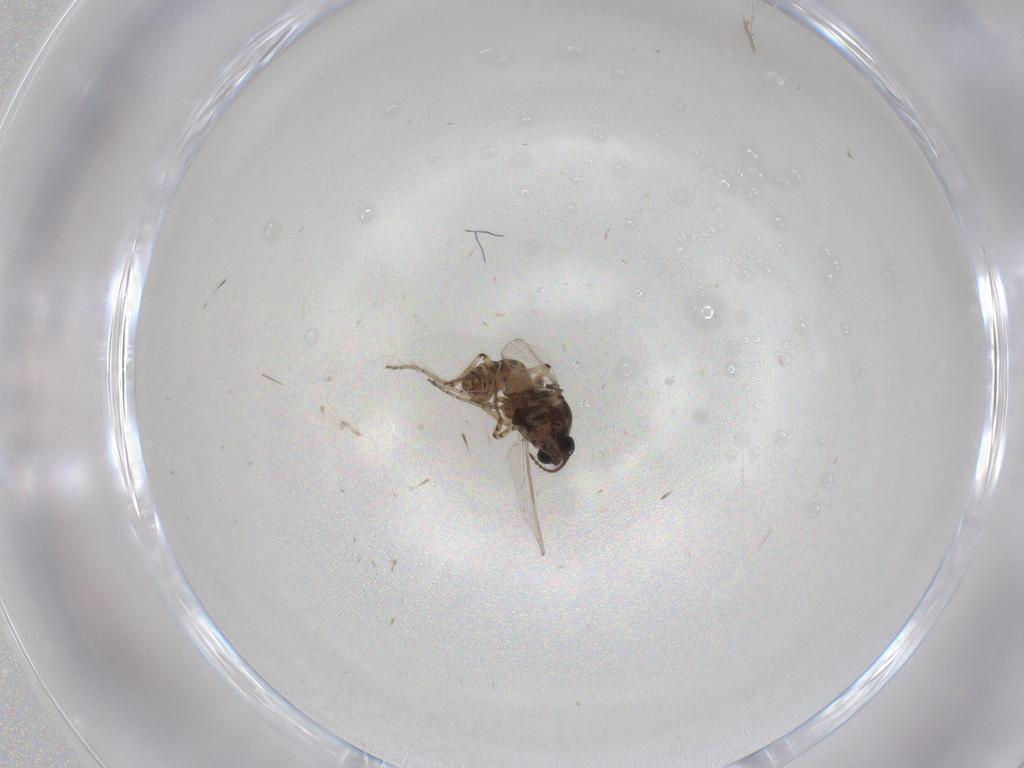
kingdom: Animalia
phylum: Arthropoda
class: Insecta
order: Diptera
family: Ceratopogonidae
